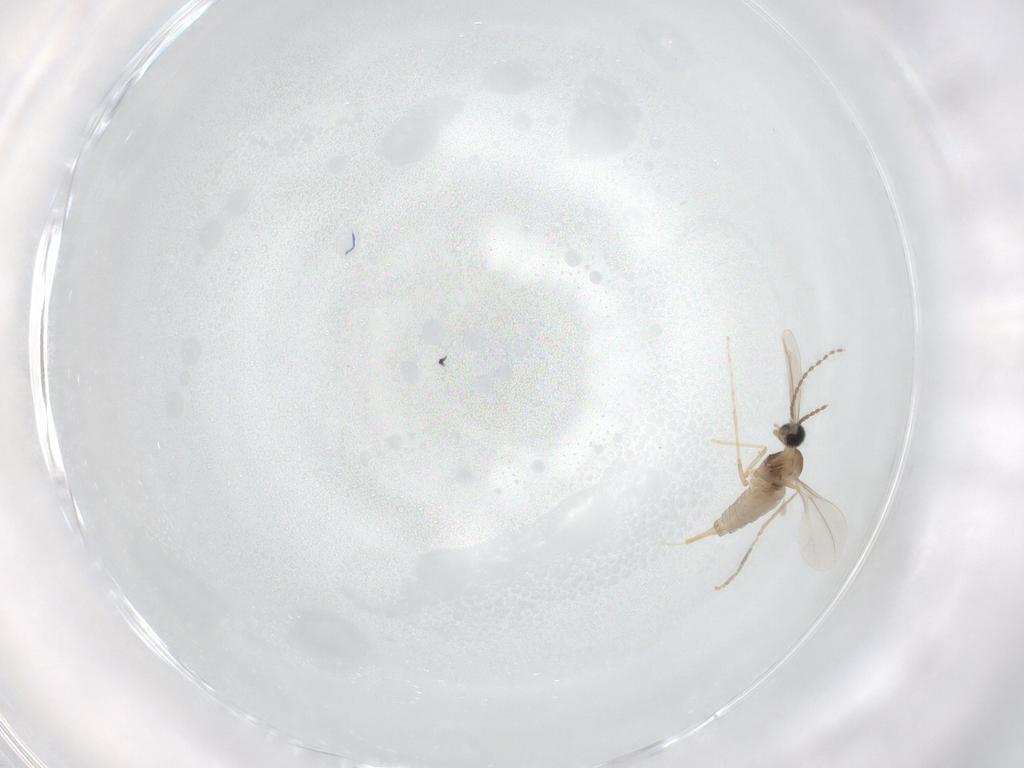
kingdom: Animalia
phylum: Arthropoda
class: Insecta
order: Diptera
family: Cecidomyiidae
